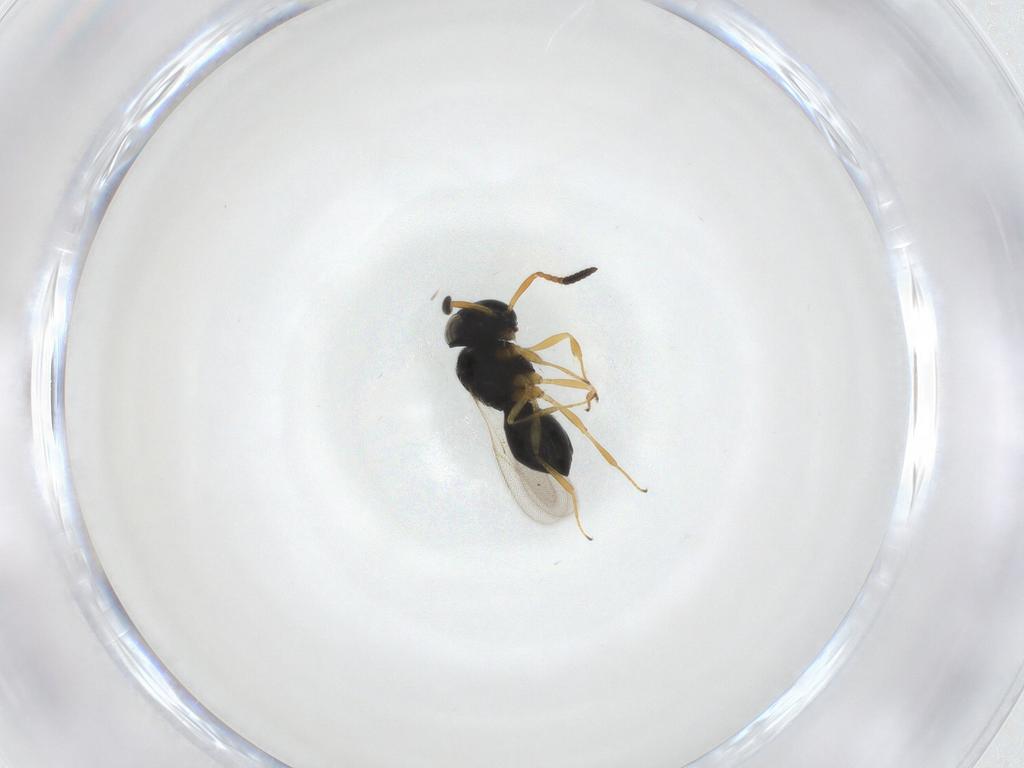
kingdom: Animalia
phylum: Arthropoda
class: Insecta
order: Hymenoptera
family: Scelionidae
